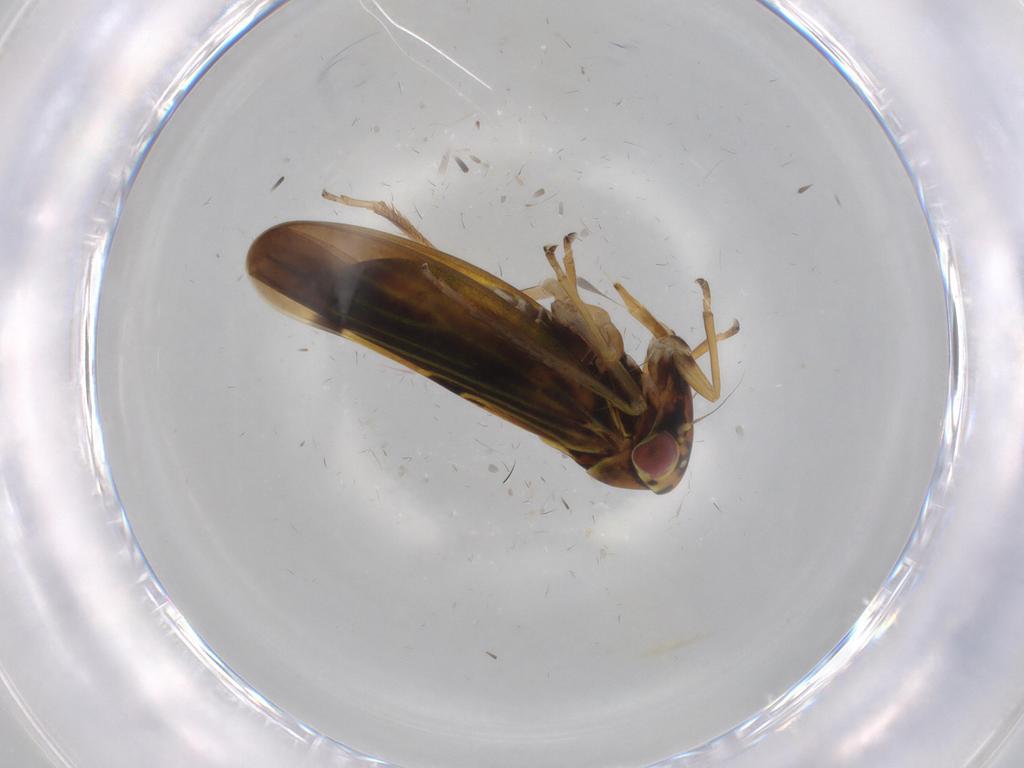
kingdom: Animalia
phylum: Arthropoda
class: Insecta
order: Hemiptera
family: Cicadellidae
